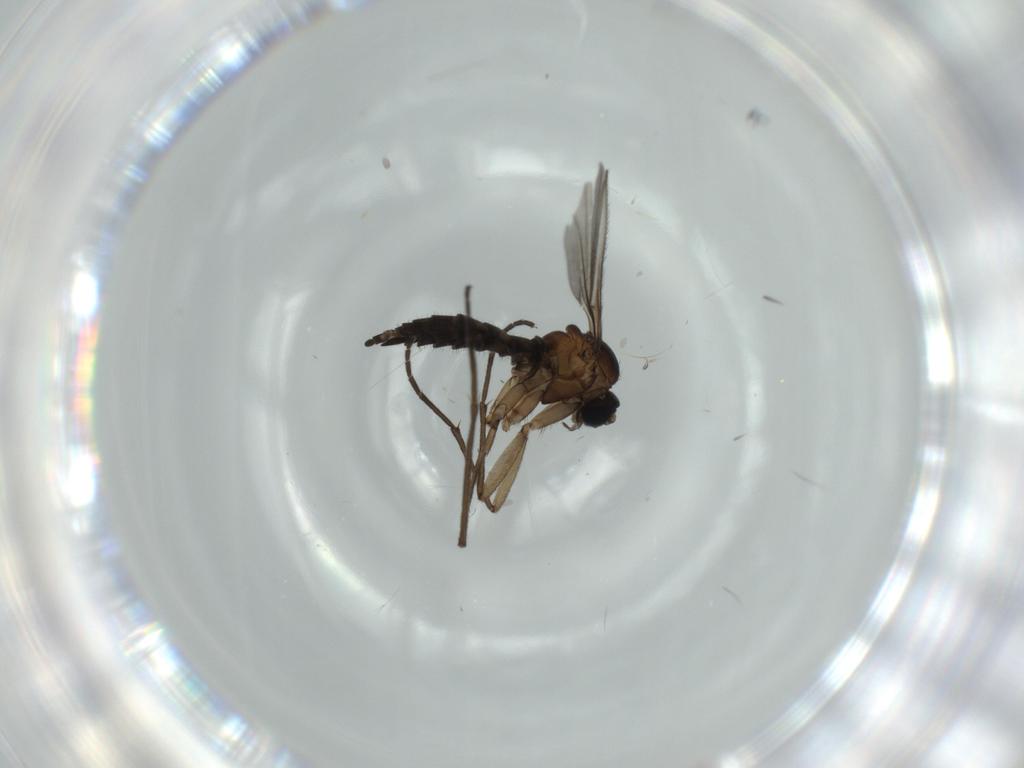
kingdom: Animalia
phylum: Arthropoda
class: Insecta
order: Diptera
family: Sciaridae
